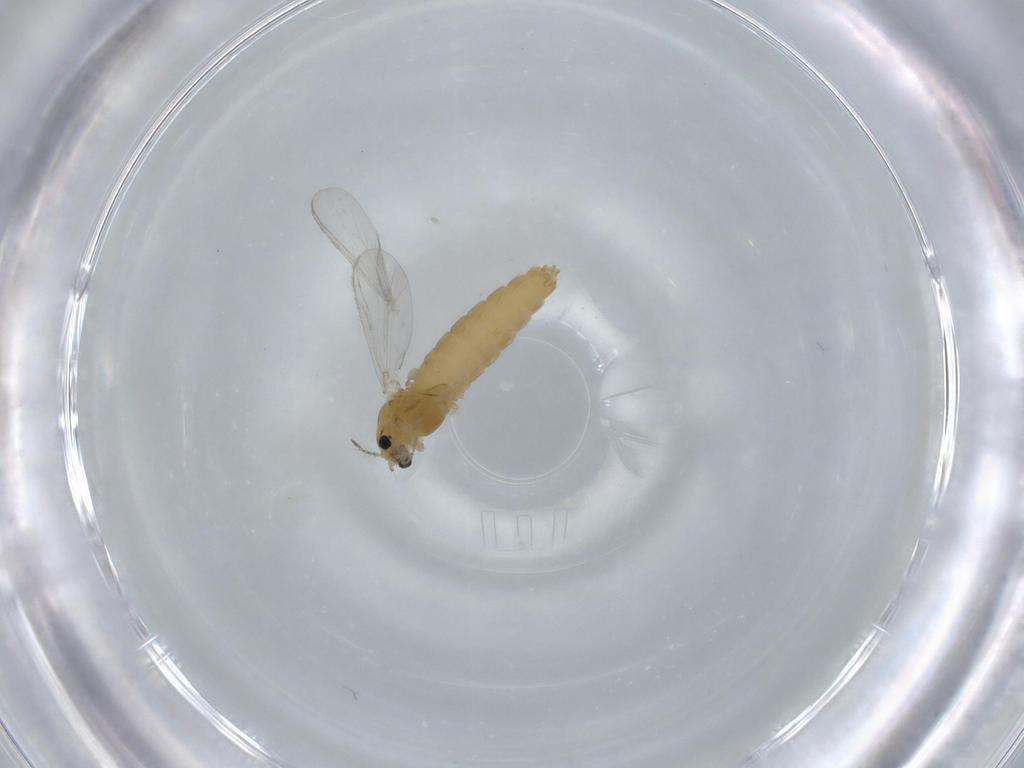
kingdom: Animalia
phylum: Arthropoda
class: Insecta
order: Diptera
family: Chironomidae
